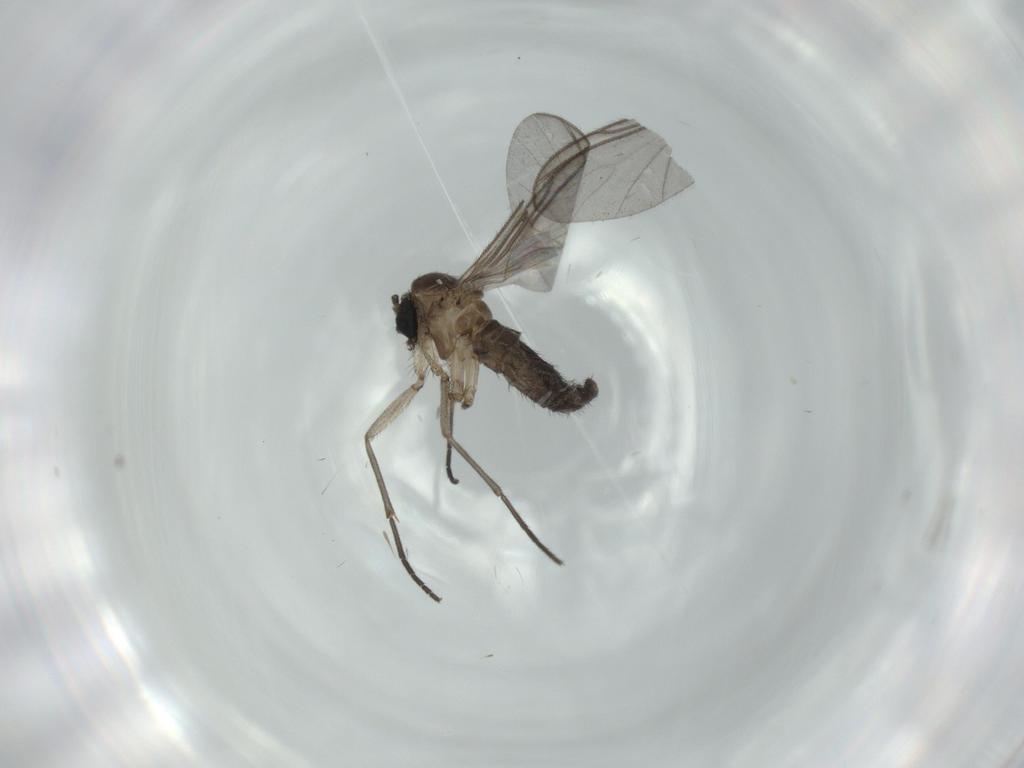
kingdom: Animalia
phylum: Arthropoda
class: Insecta
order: Diptera
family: Sciaridae
